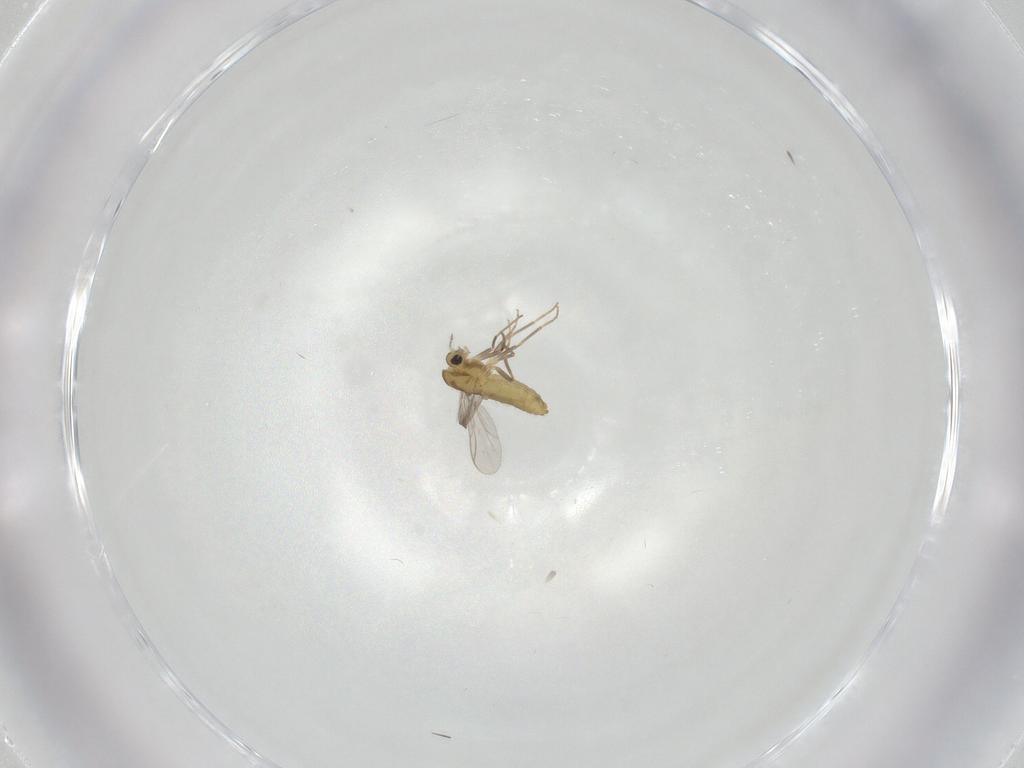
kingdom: Animalia
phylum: Arthropoda
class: Insecta
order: Diptera
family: Chironomidae
